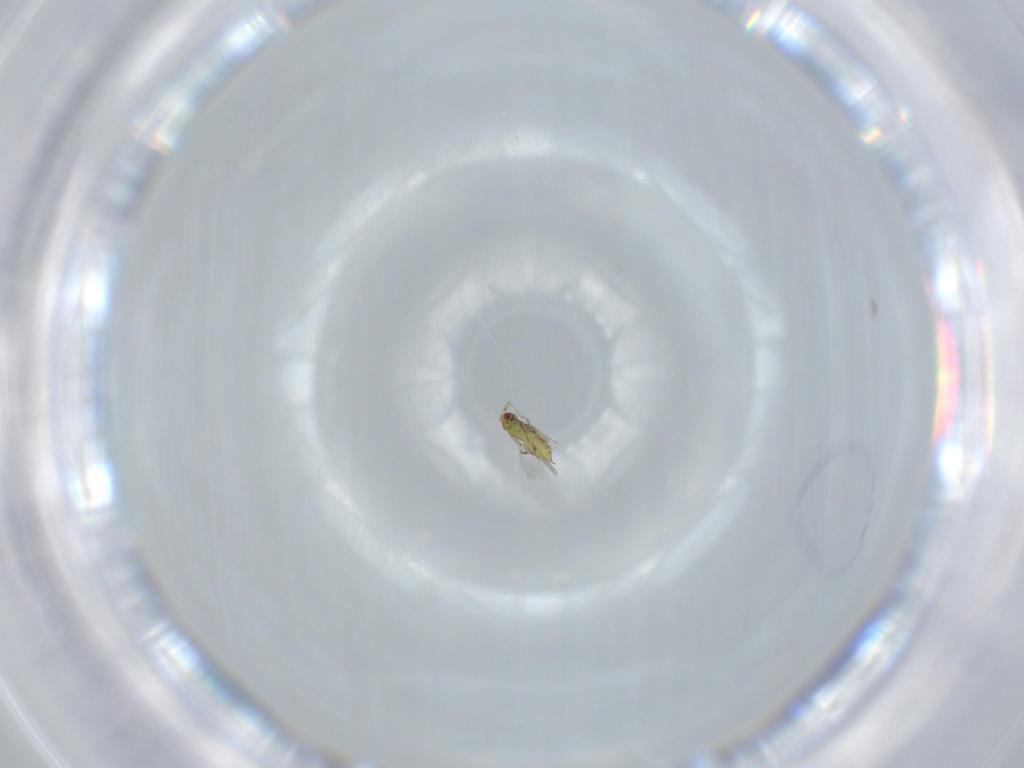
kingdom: Animalia
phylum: Arthropoda
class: Insecta
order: Hymenoptera
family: Trichogrammatidae
